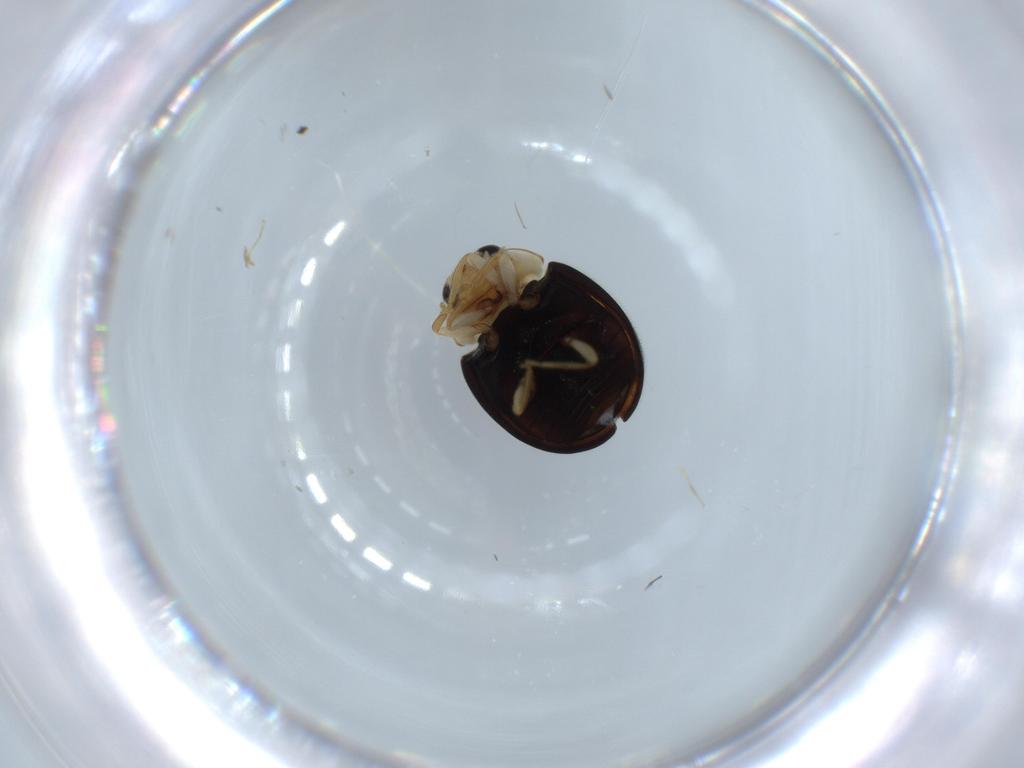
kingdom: Animalia
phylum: Arthropoda
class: Insecta
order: Coleoptera
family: Coccinellidae
